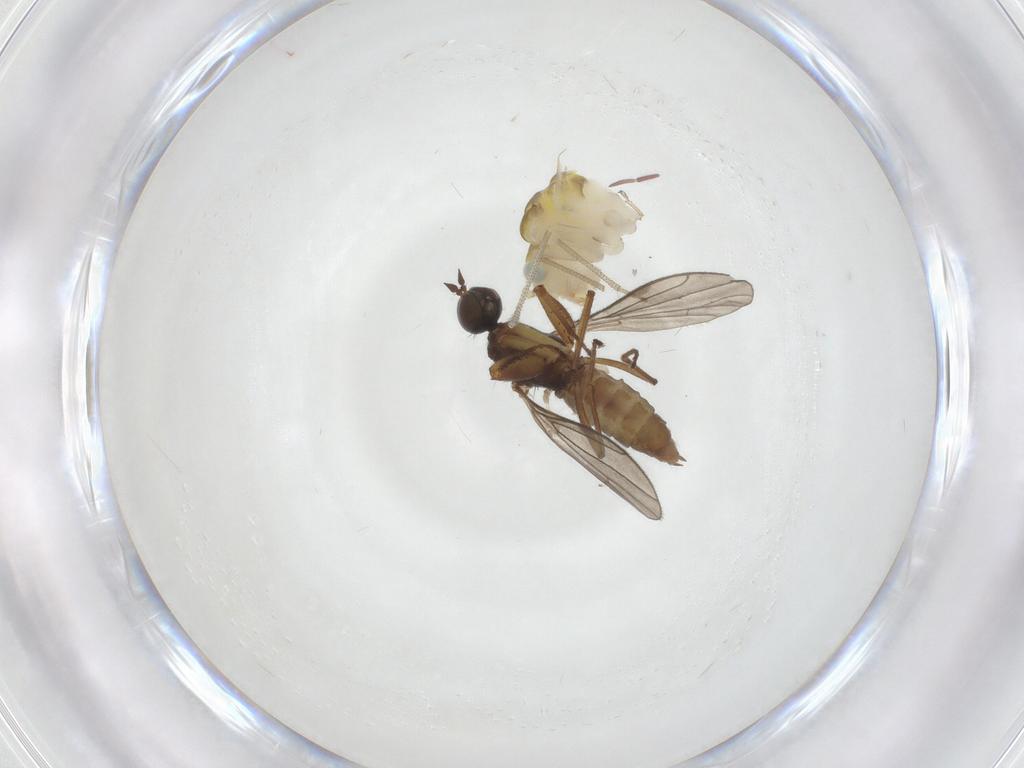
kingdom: Animalia
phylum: Arthropoda
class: Insecta
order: Diptera
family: Empididae
